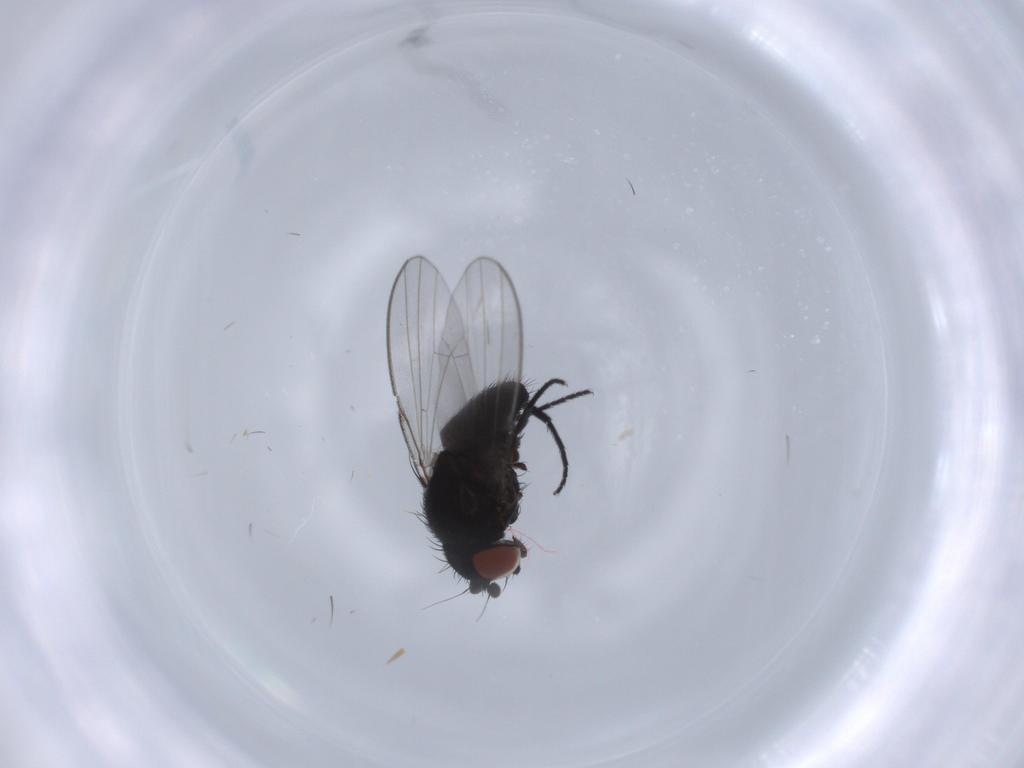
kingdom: Animalia
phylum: Arthropoda
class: Insecta
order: Diptera
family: Milichiidae
